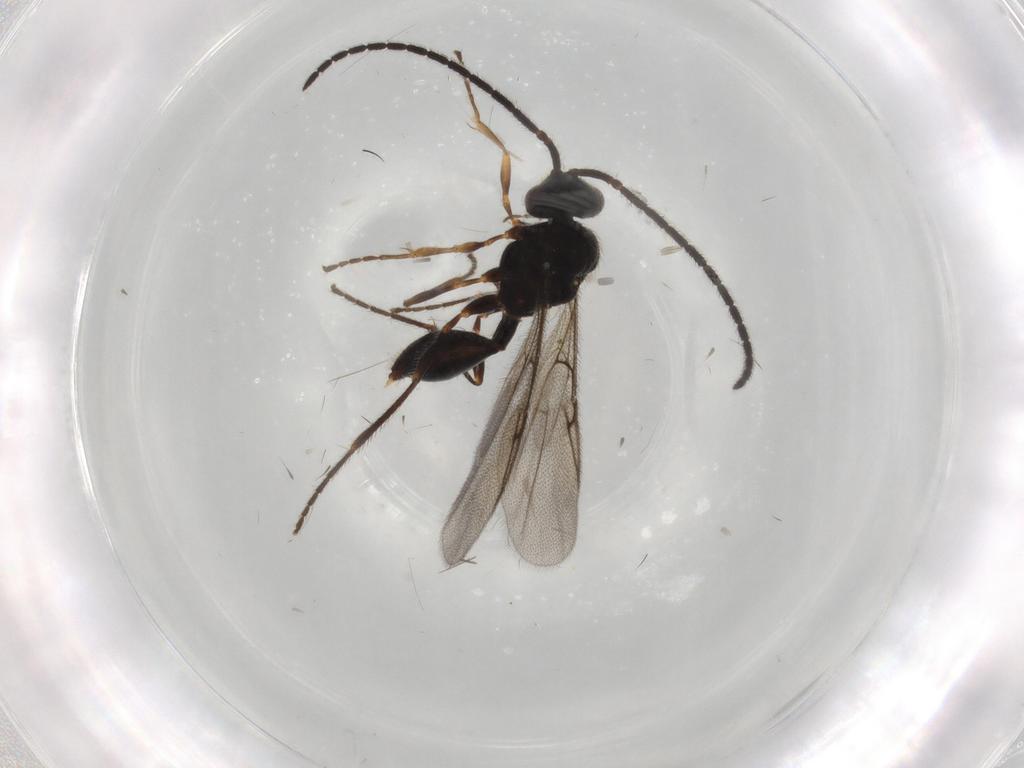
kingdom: Animalia
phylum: Arthropoda
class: Insecta
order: Hymenoptera
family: Diapriidae
